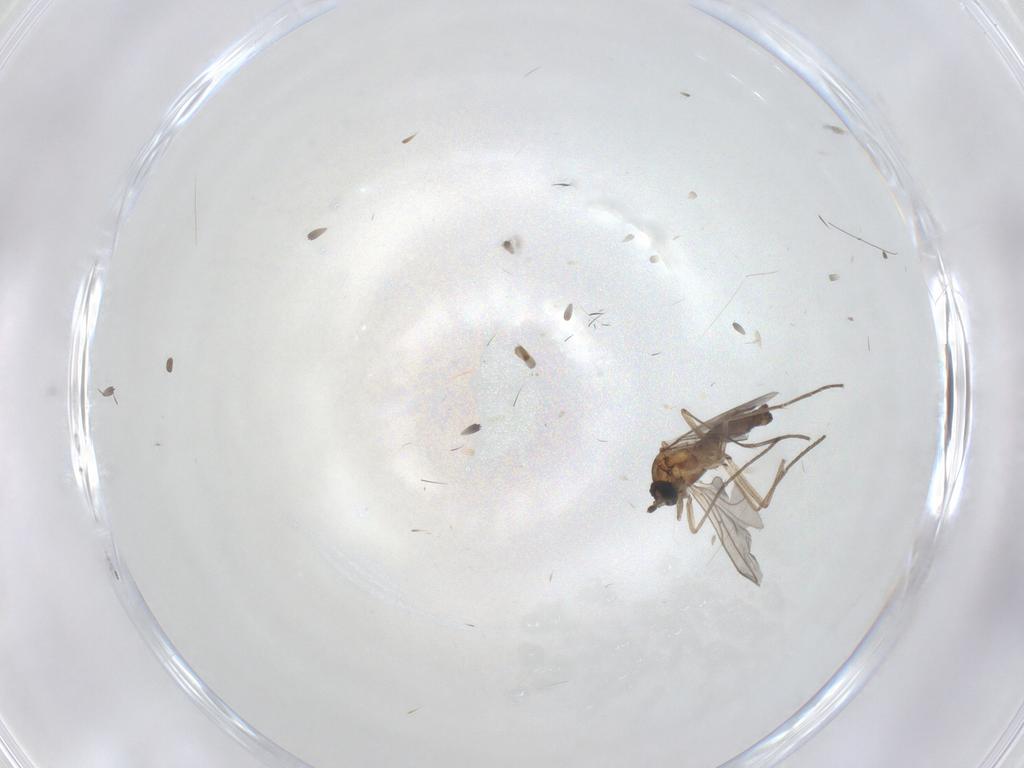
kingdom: Animalia
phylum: Arthropoda
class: Insecta
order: Diptera
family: Sciaridae
